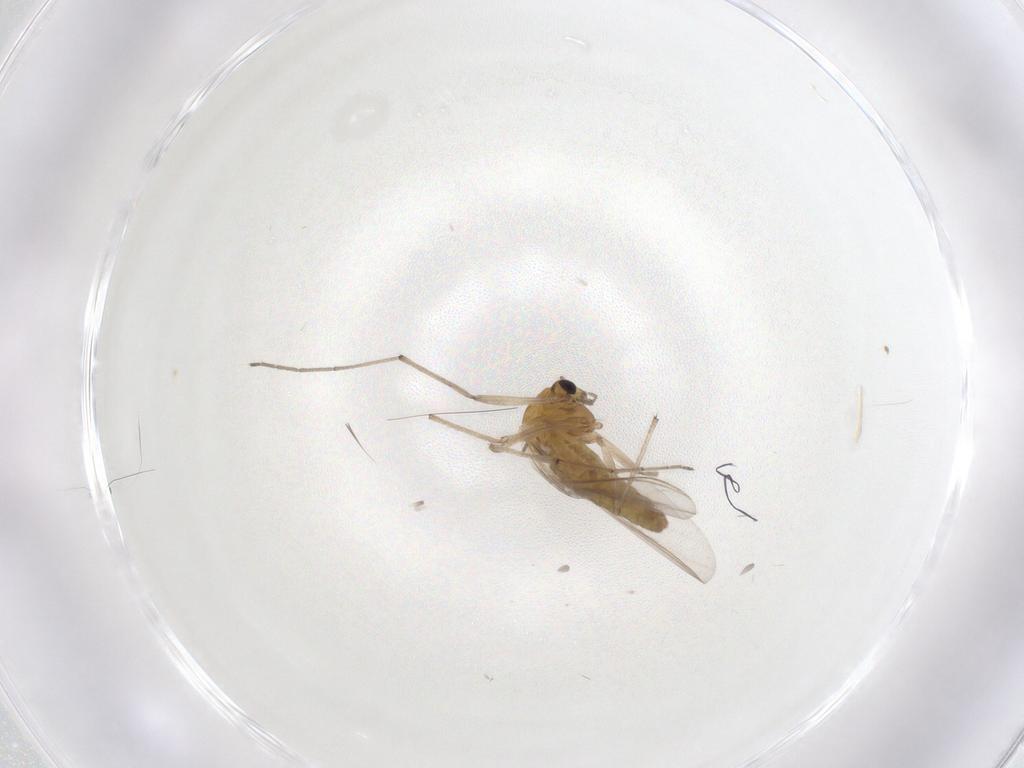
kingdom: Animalia
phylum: Arthropoda
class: Insecta
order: Diptera
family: Chironomidae
